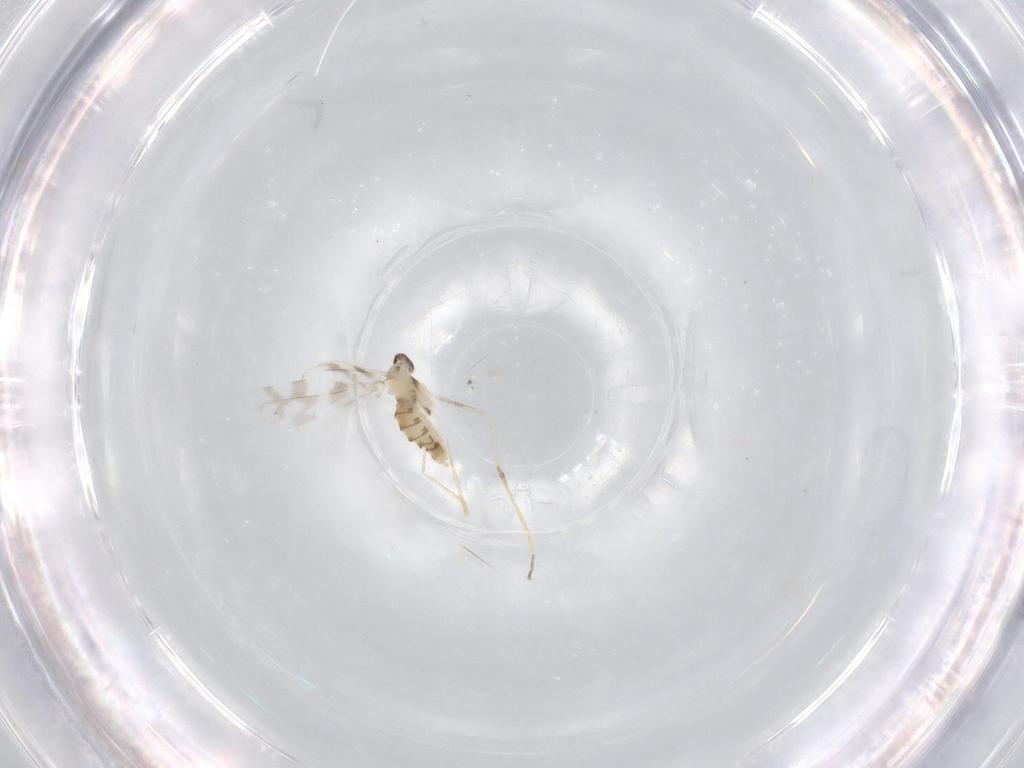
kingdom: Animalia
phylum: Arthropoda
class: Insecta
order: Diptera
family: Cecidomyiidae
